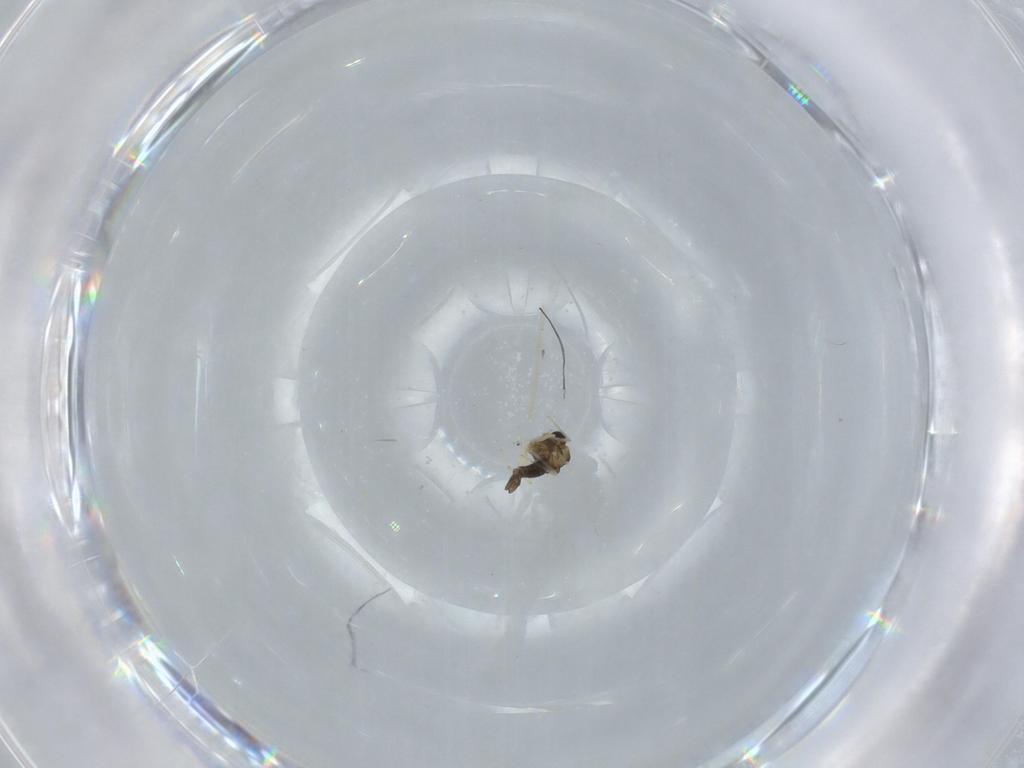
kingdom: Animalia
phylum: Arthropoda
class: Insecta
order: Diptera
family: Chironomidae
